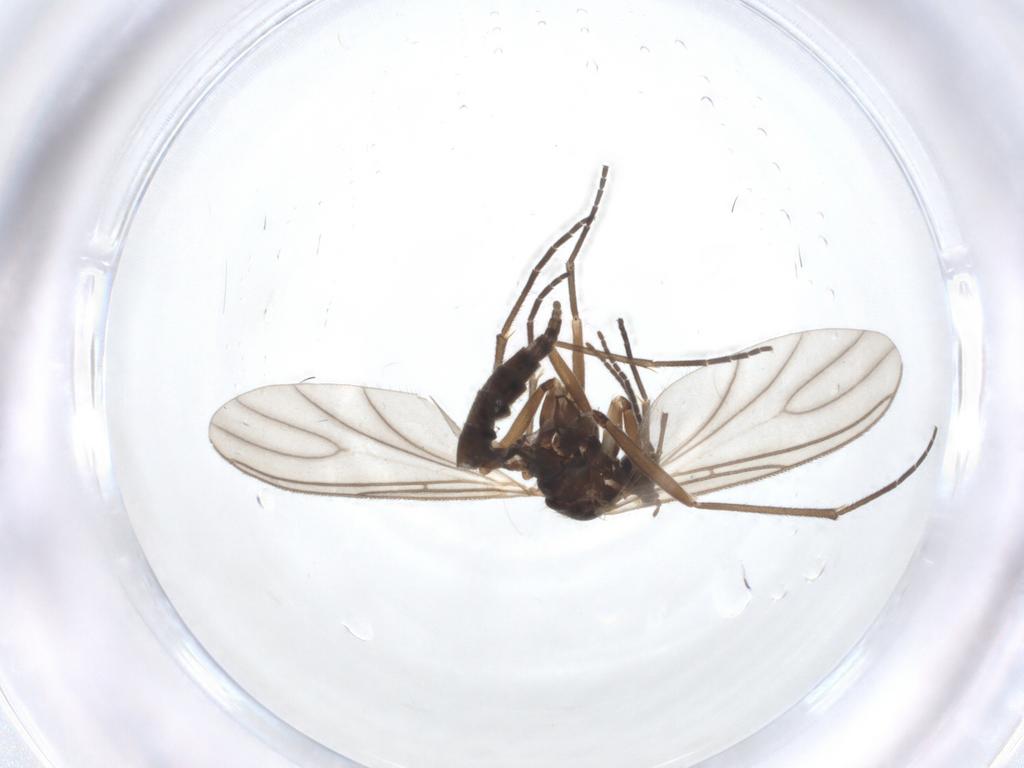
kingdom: Animalia
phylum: Arthropoda
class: Insecta
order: Diptera
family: Sciaridae
